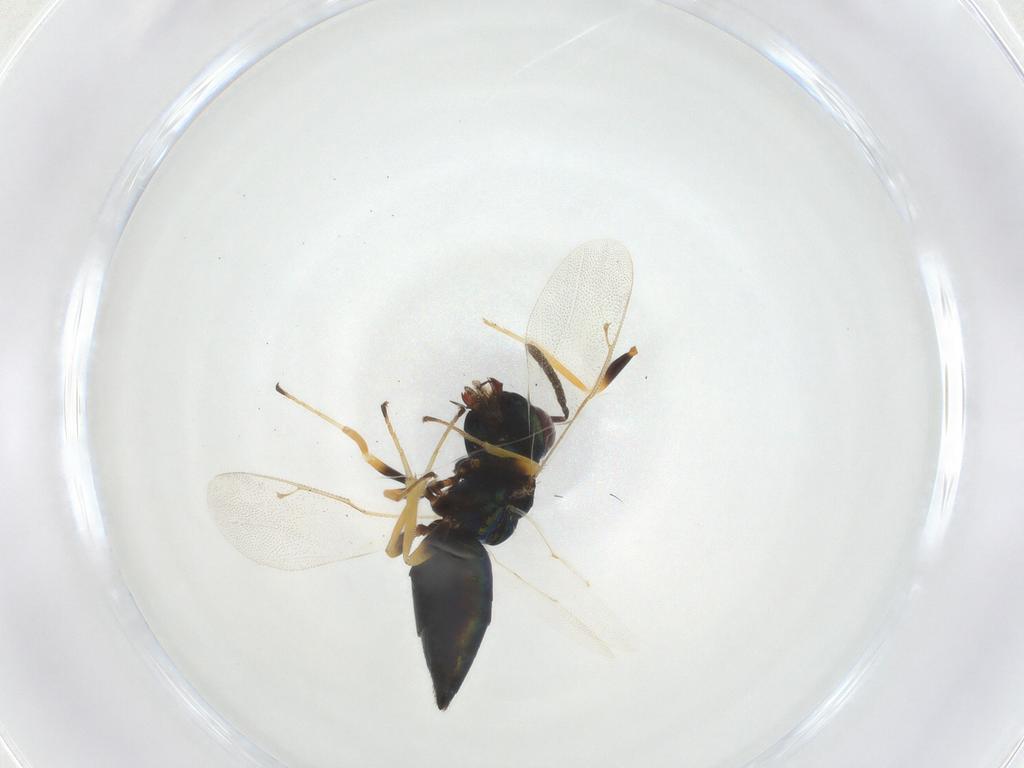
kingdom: Animalia
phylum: Arthropoda
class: Insecta
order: Hymenoptera
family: Pteromalidae
